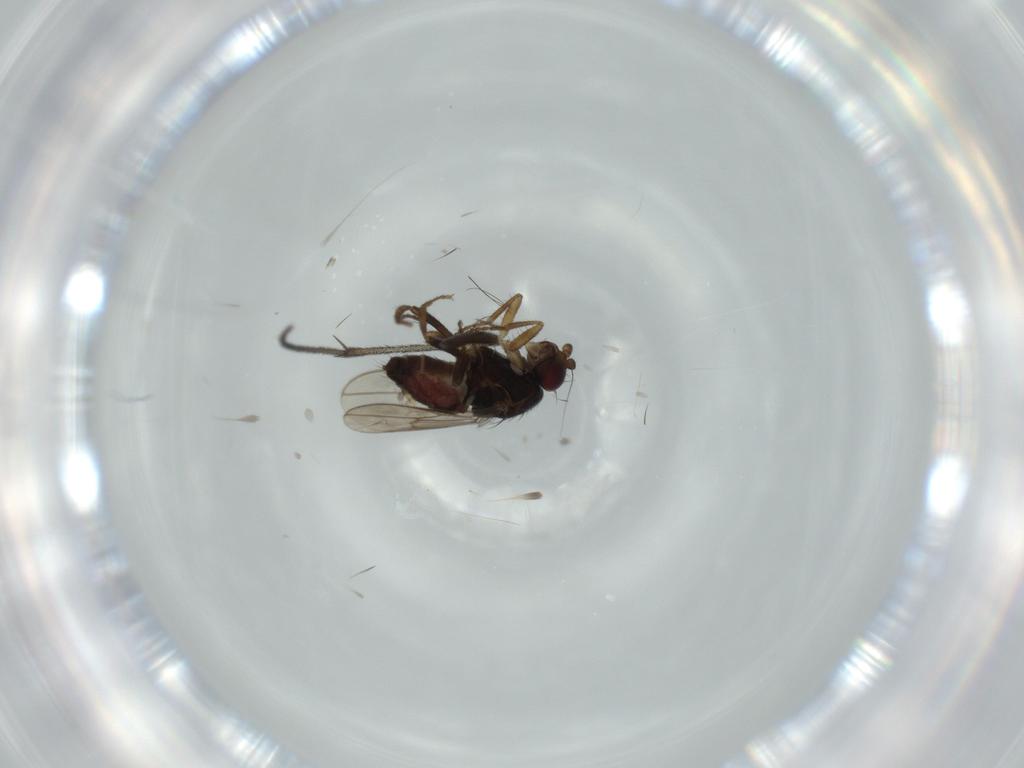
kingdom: Animalia
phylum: Arthropoda
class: Insecta
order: Diptera
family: Sphaeroceridae
